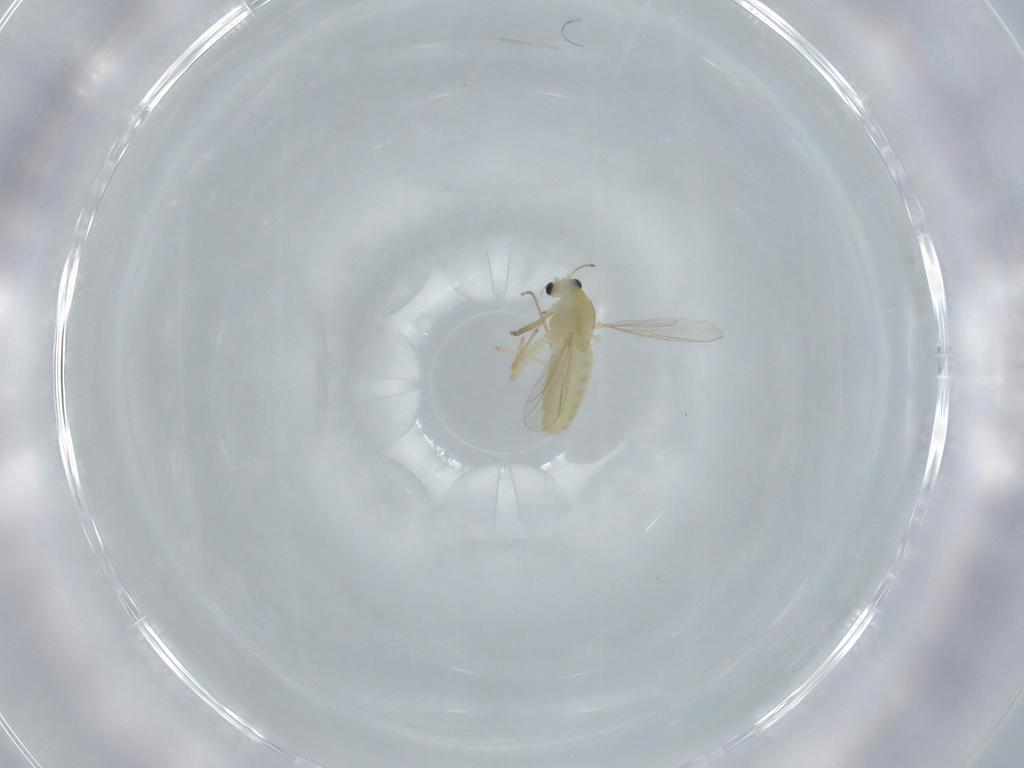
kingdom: Animalia
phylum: Arthropoda
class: Insecta
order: Diptera
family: Chironomidae
